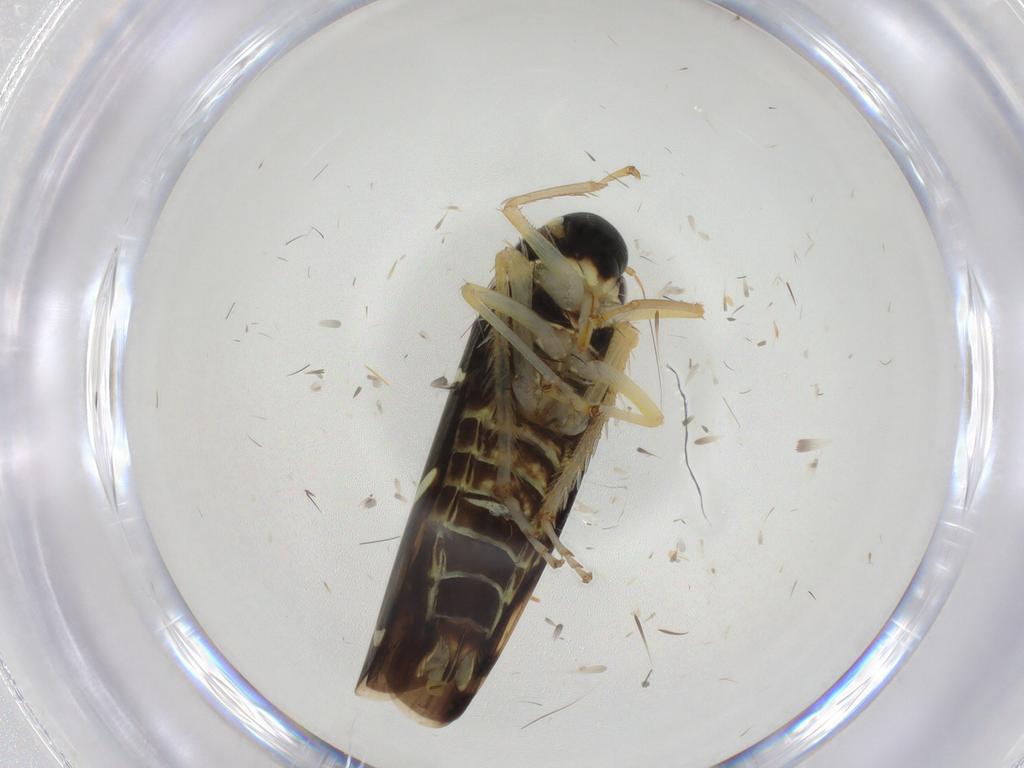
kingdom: Animalia
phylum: Arthropoda
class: Insecta
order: Hemiptera
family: Cicadellidae
